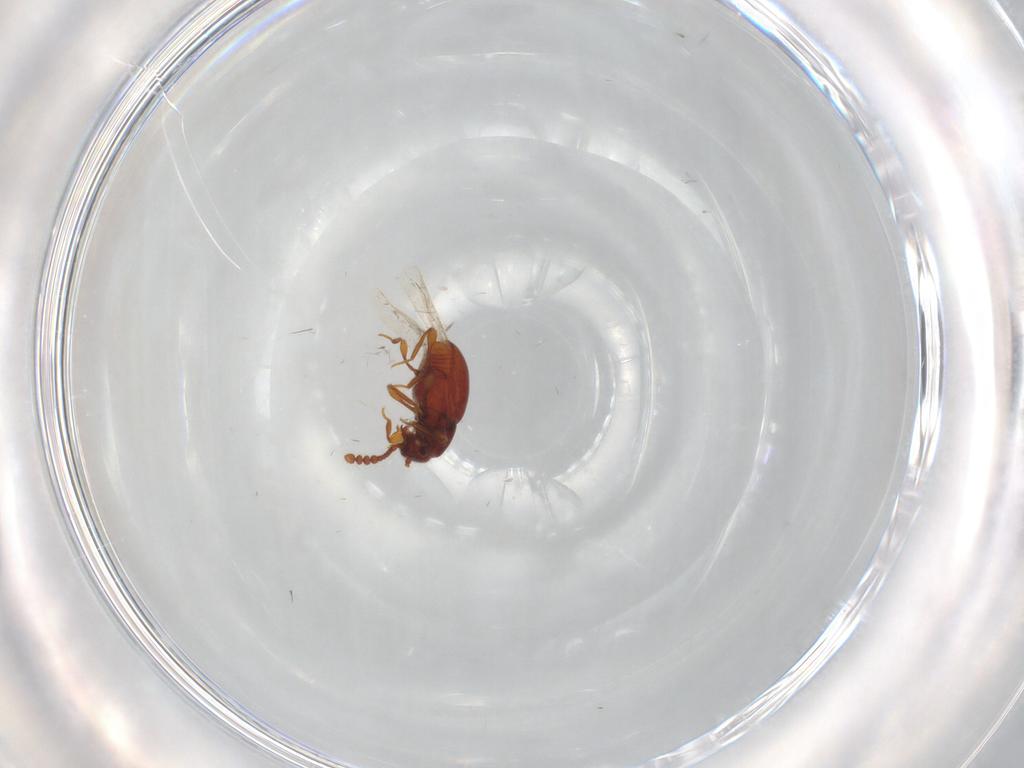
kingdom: Animalia
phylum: Arthropoda
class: Insecta
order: Coleoptera
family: Staphylinidae
